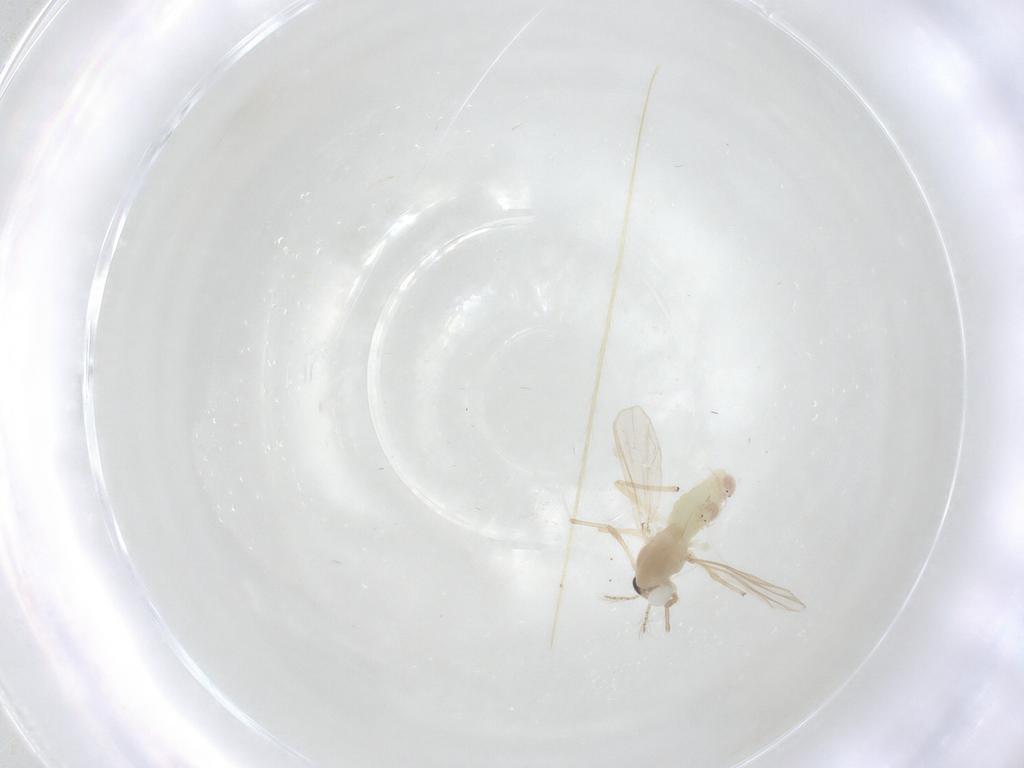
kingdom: Animalia
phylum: Arthropoda
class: Insecta
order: Diptera
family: Chironomidae
